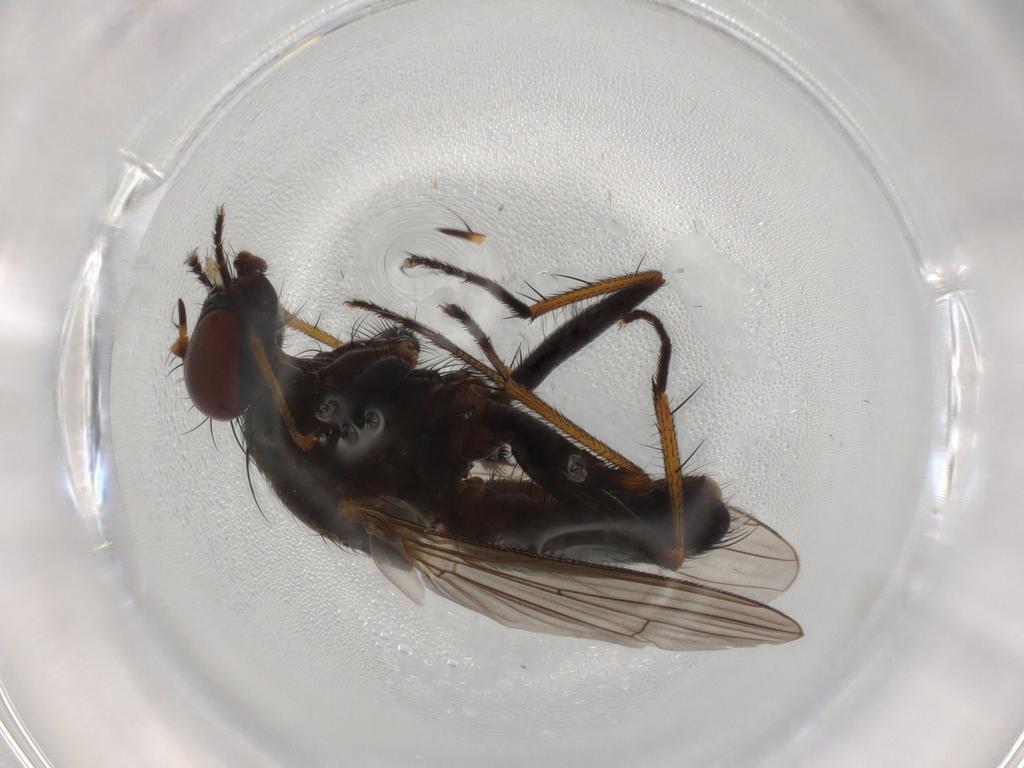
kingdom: Animalia
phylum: Arthropoda
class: Insecta
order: Diptera
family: Muscidae
